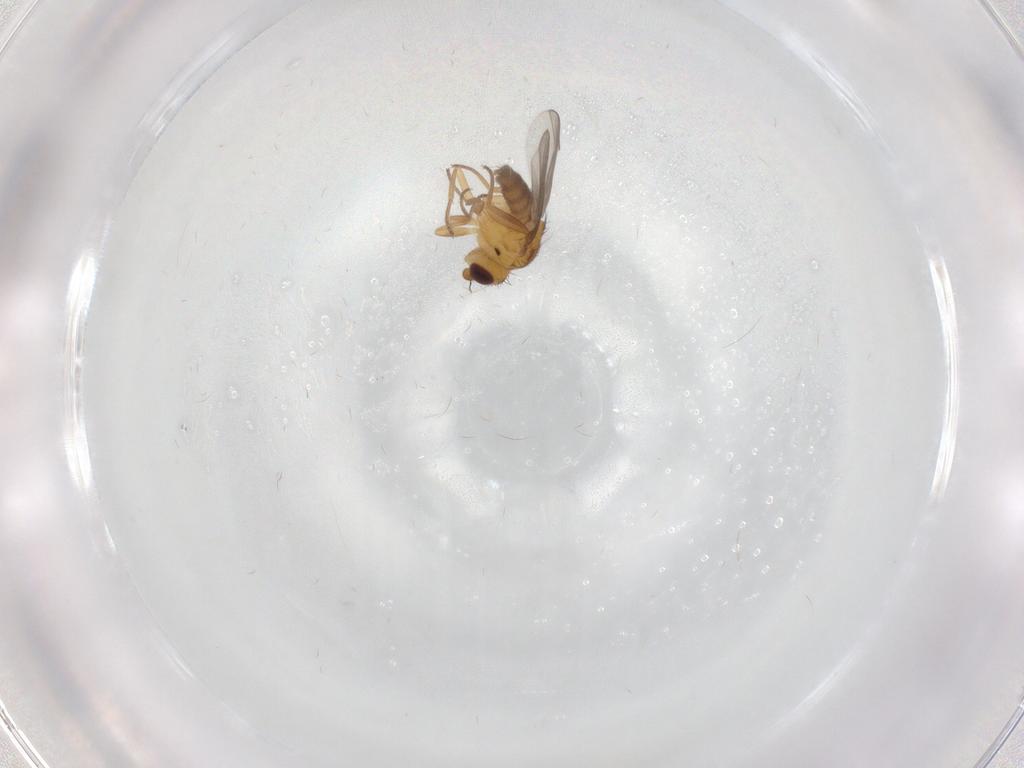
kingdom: Animalia
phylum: Arthropoda
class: Insecta
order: Diptera
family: Chloropidae
